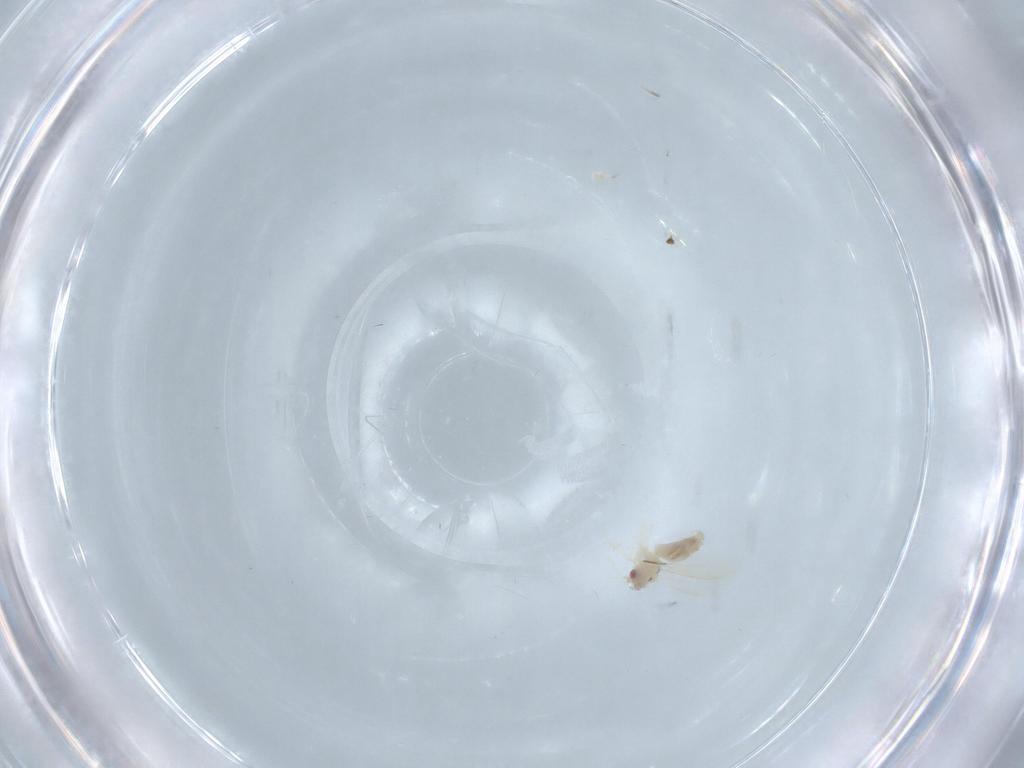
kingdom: Animalia
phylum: Arthropoda
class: Insecta
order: Diptera
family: Chironomidae
